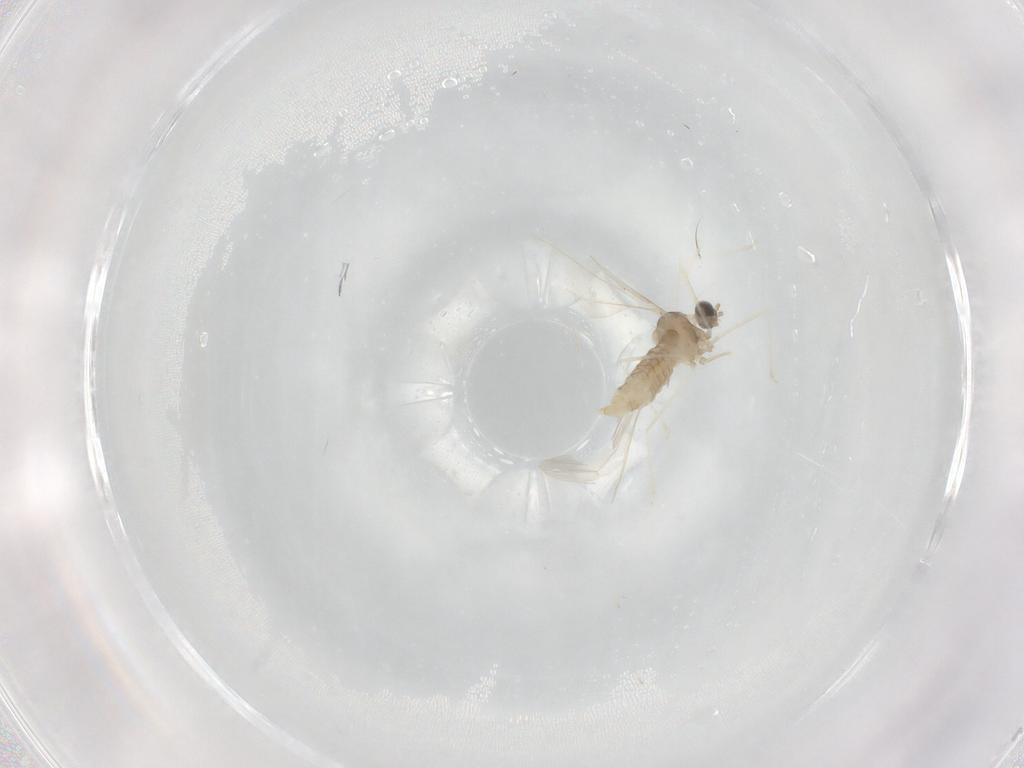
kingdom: Animalia
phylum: Arthropoda
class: Insecta
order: Diptera
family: Cecidomyiidae
